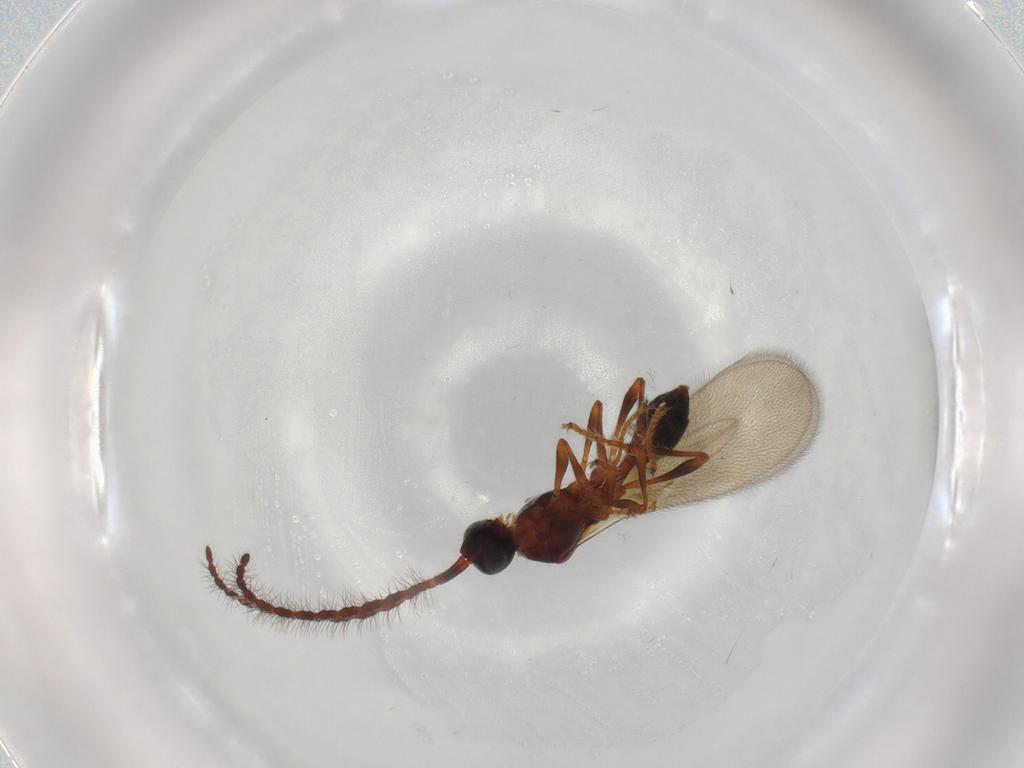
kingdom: Animalia
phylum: Arthropoda
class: Insecta
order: Hymenoptera
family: Diapriidae
